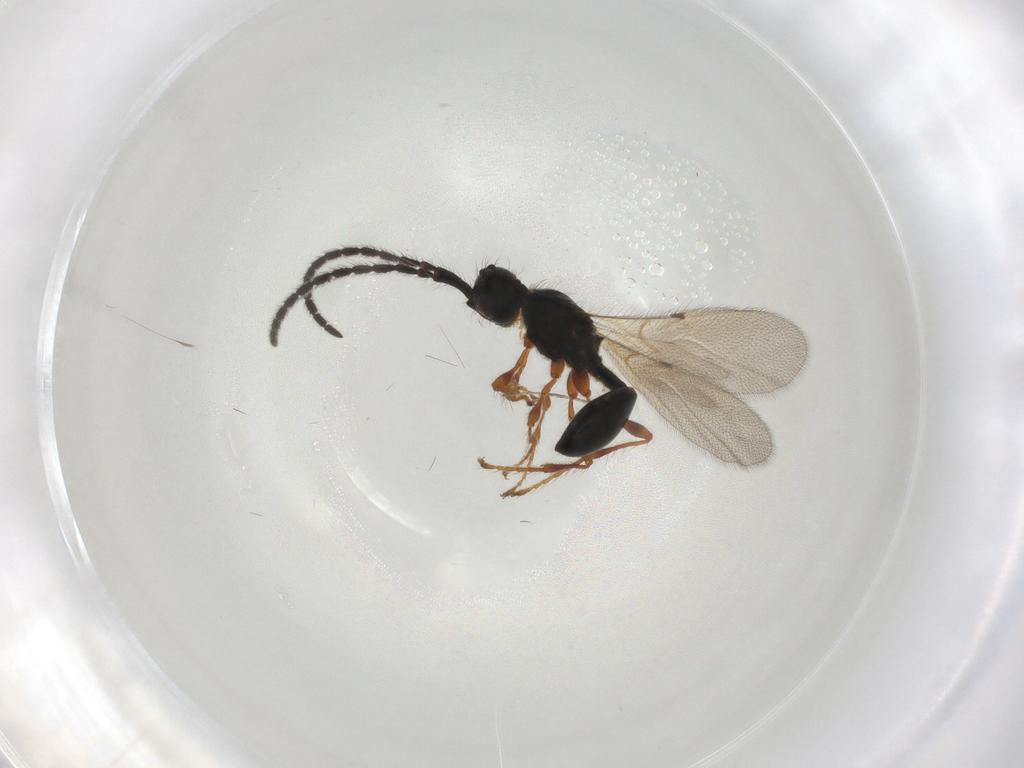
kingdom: Animalia
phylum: Arthropoda
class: Insecta
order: Hymenoptera
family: Diapriidae
